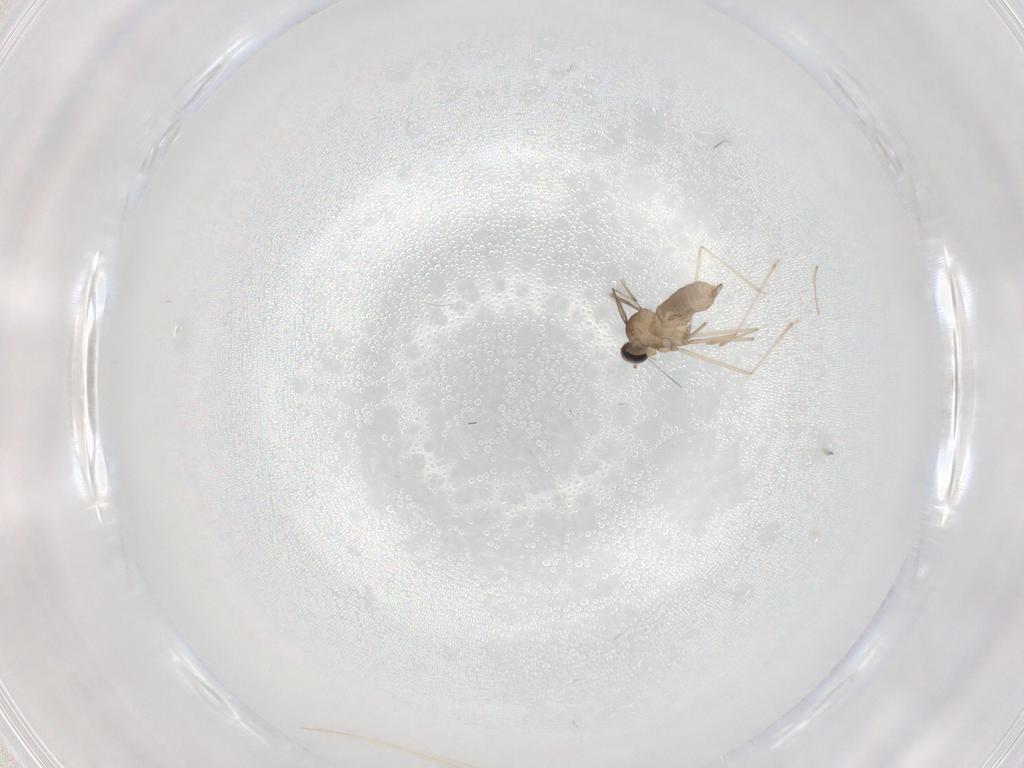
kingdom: Animalia
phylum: Arthropoda
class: Insecta
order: Diptera
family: Cecidomyiidae
